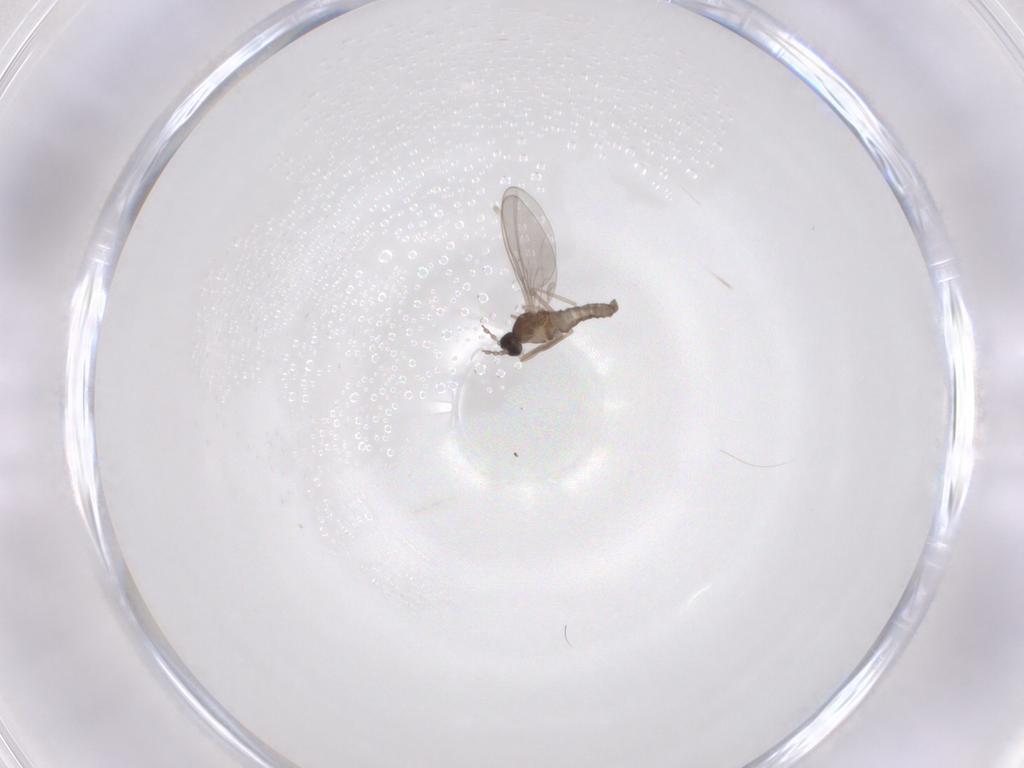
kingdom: Animalia
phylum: Arthropoda
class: Insecta
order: Diptera
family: Cecidomyiidae
